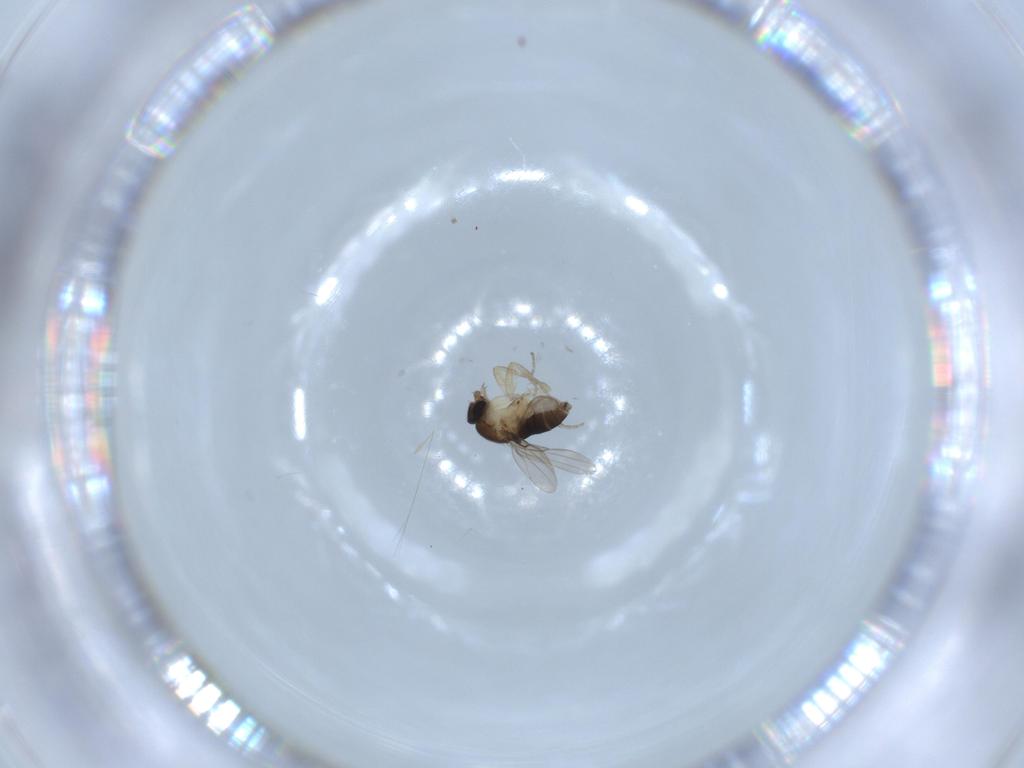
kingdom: Animalia
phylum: Arthropoda
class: Insecta
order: Diptera
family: Phoridae
